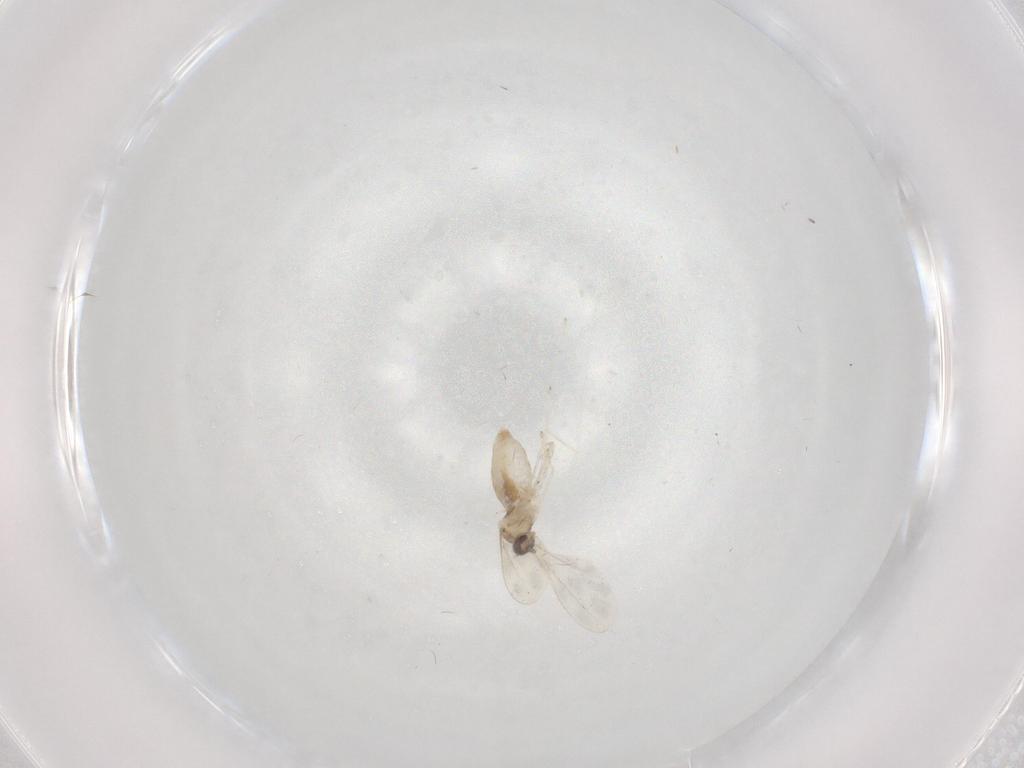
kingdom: Animalia
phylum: Arthropoda
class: Insecta
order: Diptera
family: Cecidomyiidae
